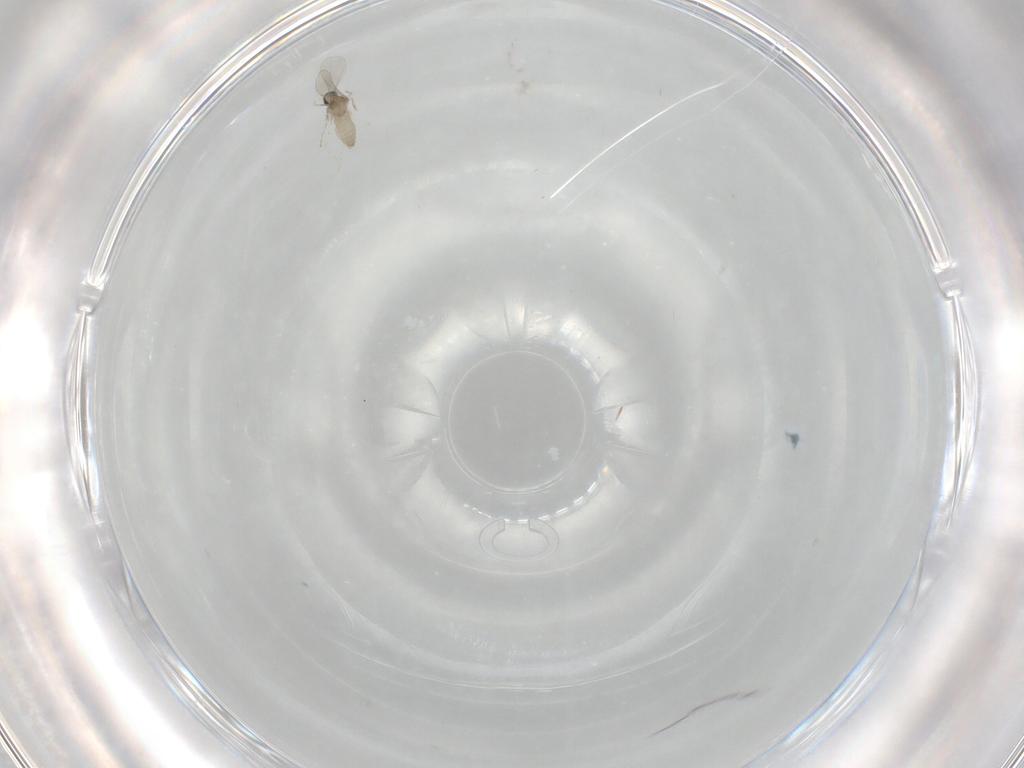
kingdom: Animalia
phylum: Arthropoda
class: Insecta
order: Diptera
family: Cecidomyiidae
